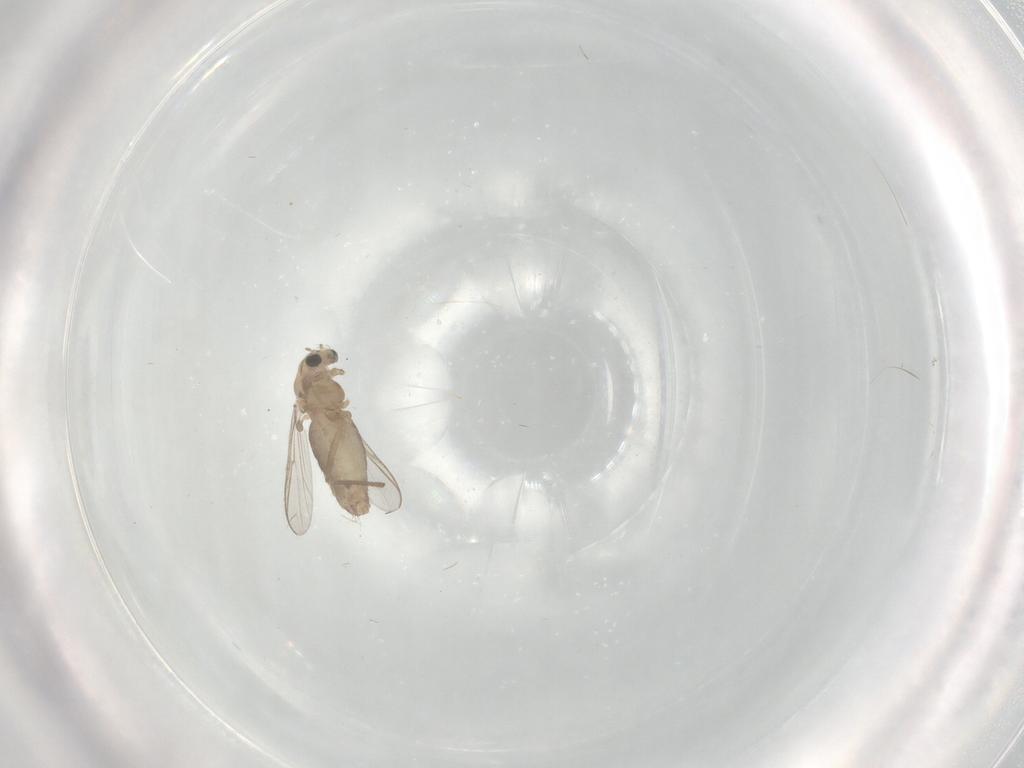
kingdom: Animalia
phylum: Arthropoda
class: Insecta
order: Diptera
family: Chironomidae
